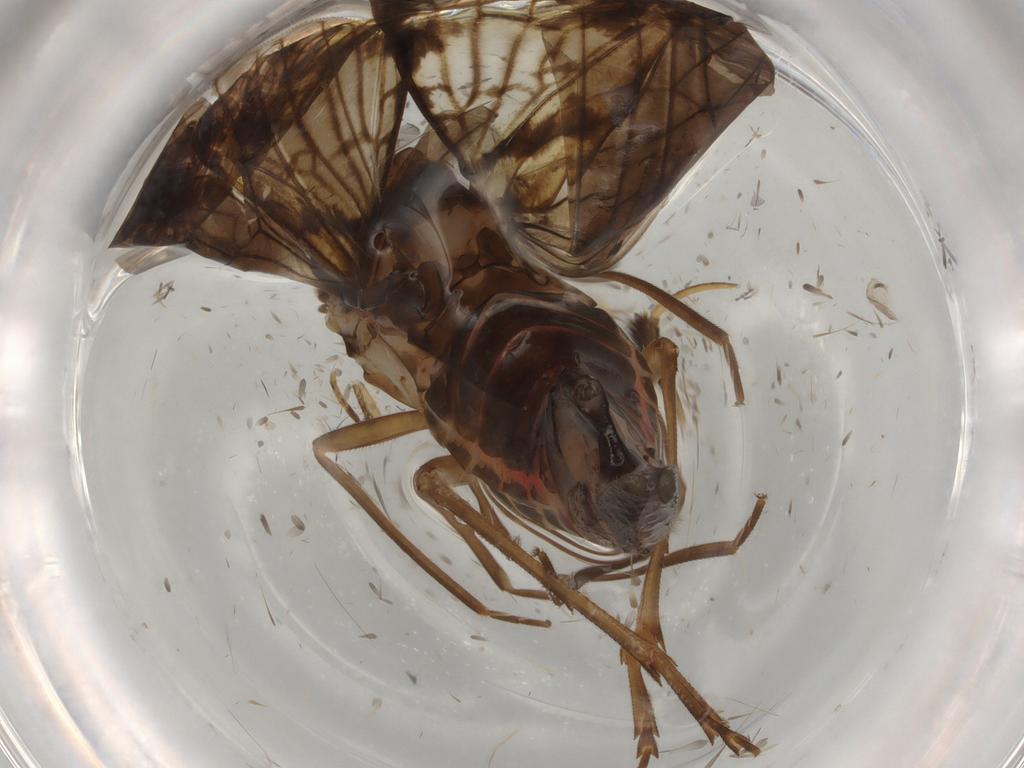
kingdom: Animalia
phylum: Arthropoda
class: Insecta
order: Hemiptera
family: Cixiidae
